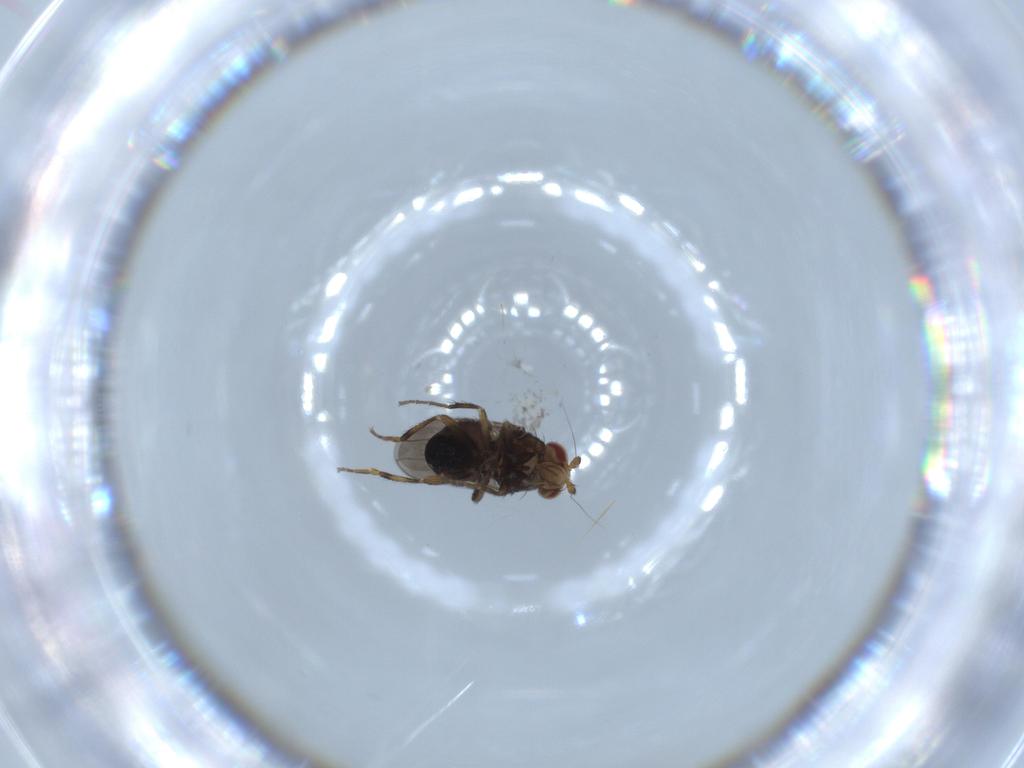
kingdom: Animalia
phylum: Arthropoda
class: Insecta
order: Diptera
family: Sphaeroceridae
